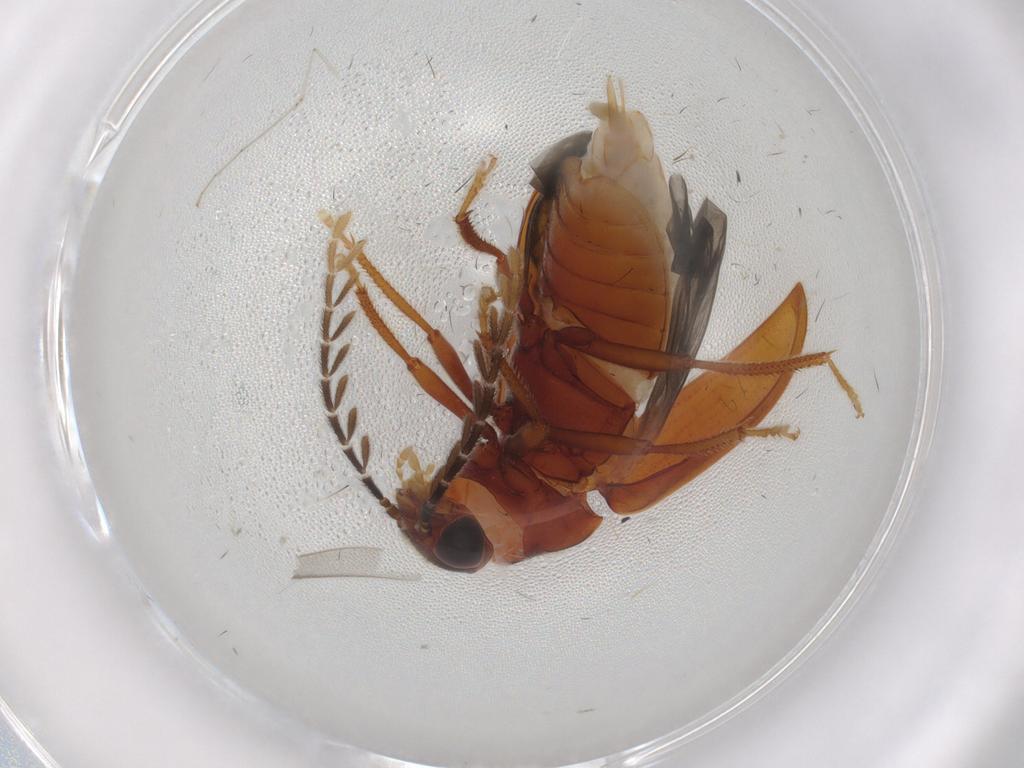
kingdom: Animalia
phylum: Arthropoda
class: Insecta
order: Coleoptera
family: Ptilodactylidae
